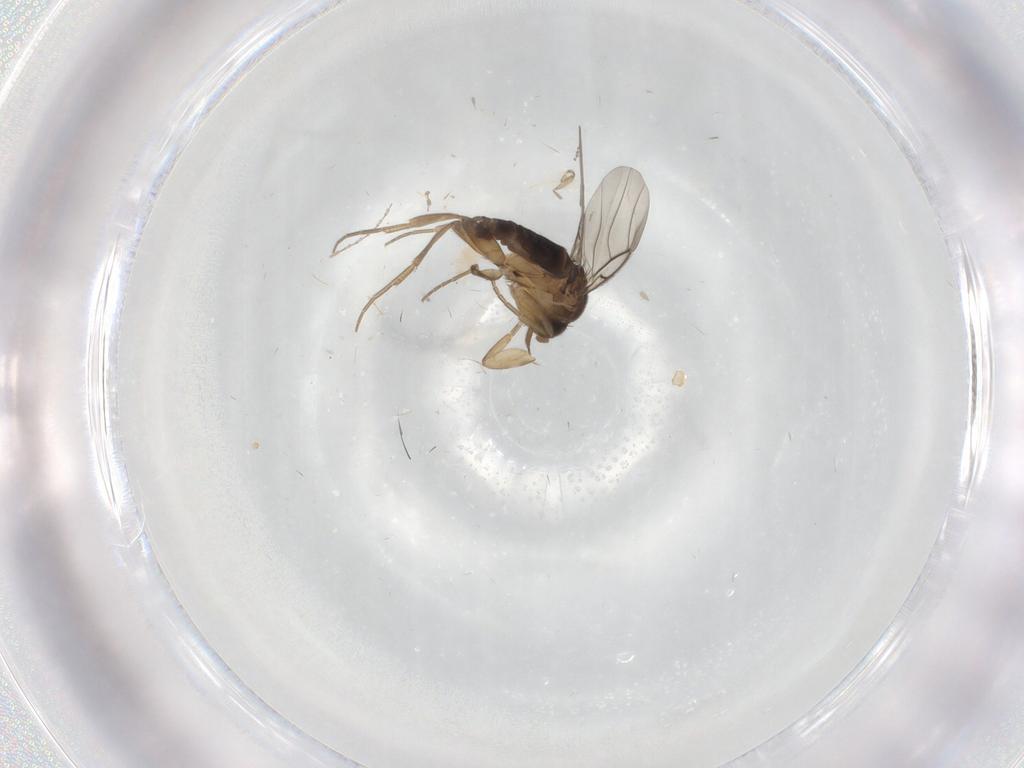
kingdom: Animalia
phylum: Arthropoda
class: Insecta
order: Diptera
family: Phoridae
